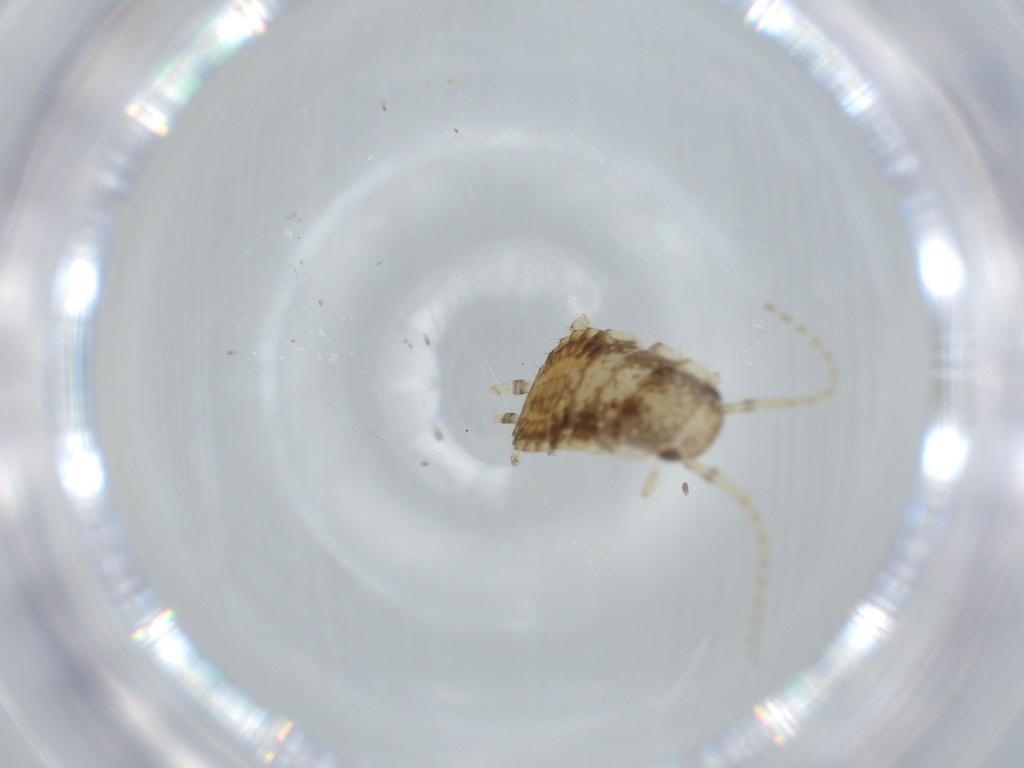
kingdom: Animalia
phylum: Arthropoda
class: Insecta
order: Blattodea
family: Ectobiidae
